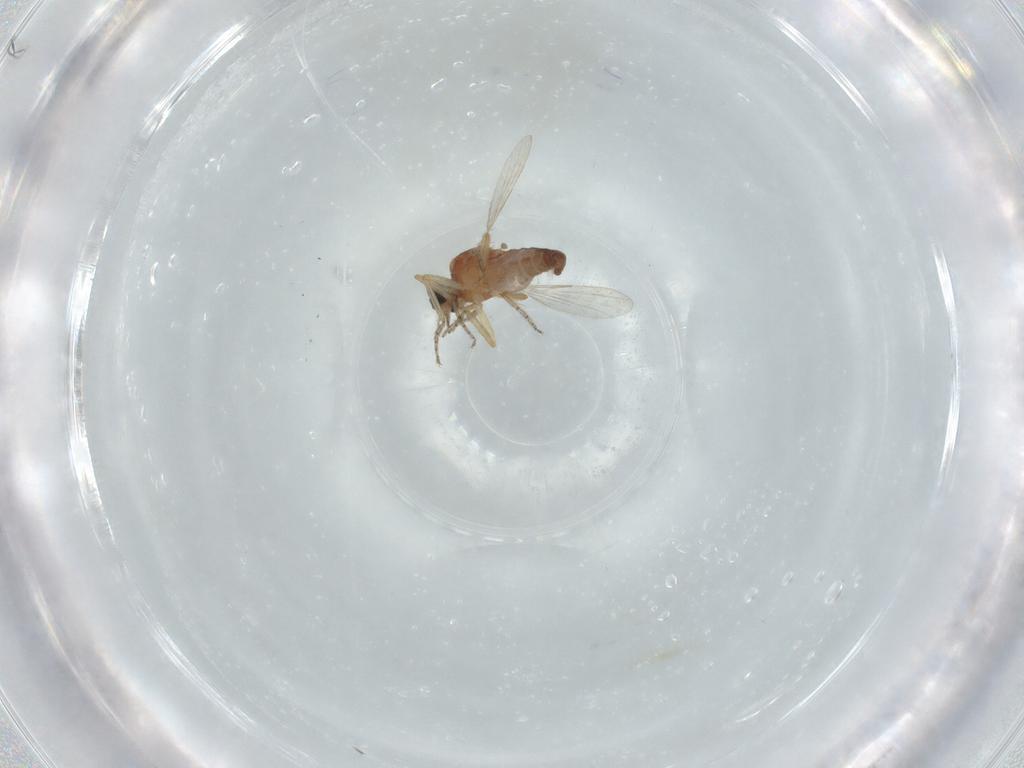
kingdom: Animalia
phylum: Arthropoda
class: Insecta
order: Diptera
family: Ceratopogonidae
